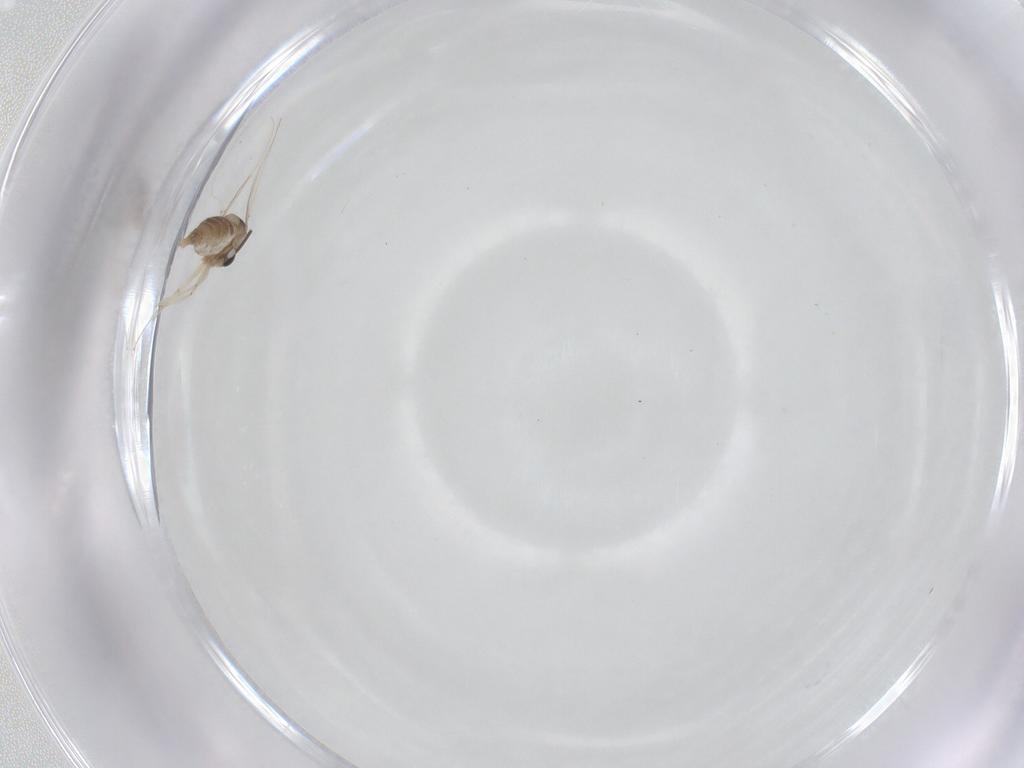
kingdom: Animalia
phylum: Arthropoda
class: Insecta
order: Diptera
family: Cecidomyiidae
